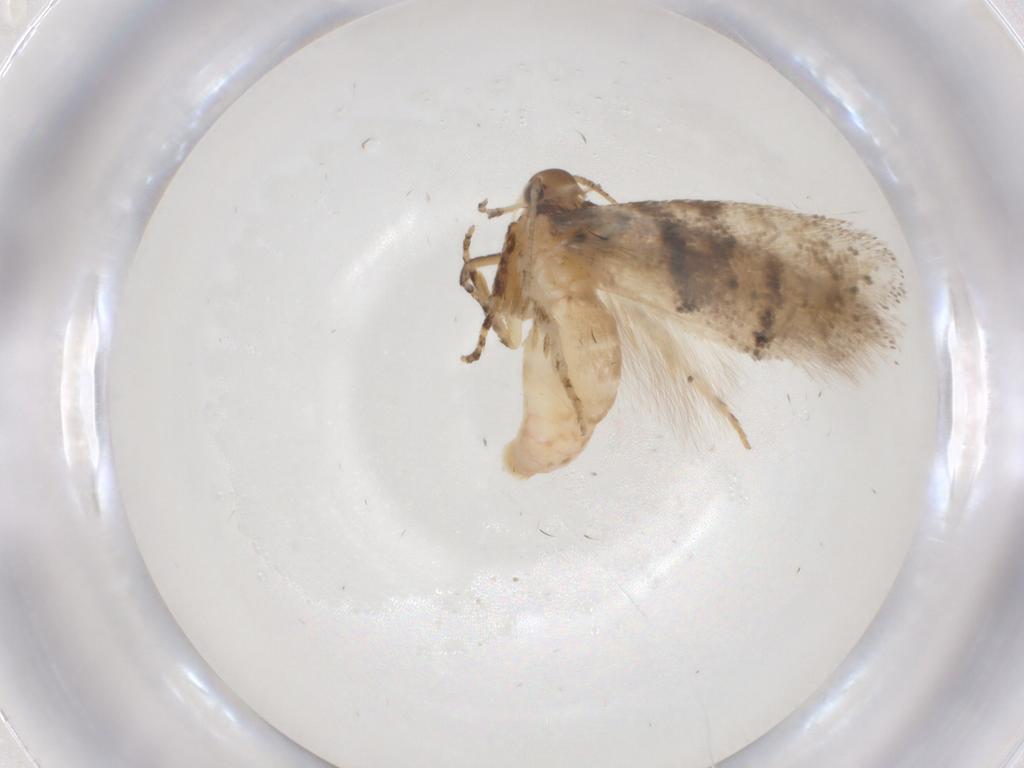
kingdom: Animalia
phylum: Arthropoda
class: Insecta
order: Lepidoptera
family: Gelechiidae
